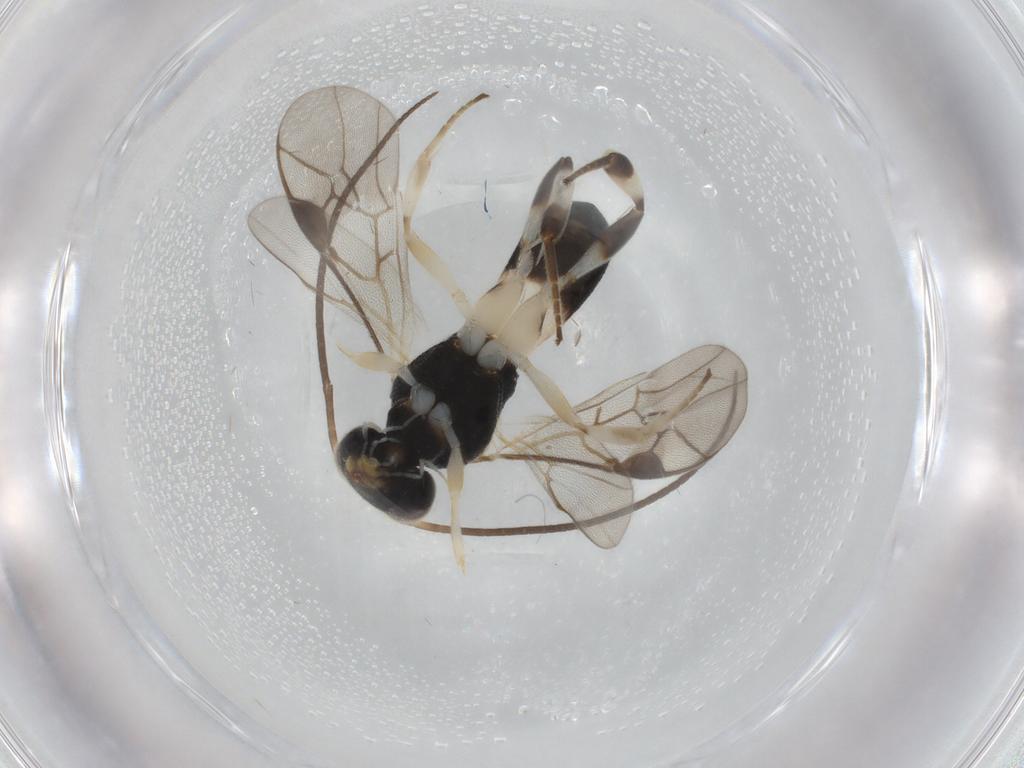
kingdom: Animalia
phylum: Arthropoda
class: Insecta
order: Hymenoptera
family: Braconidae
